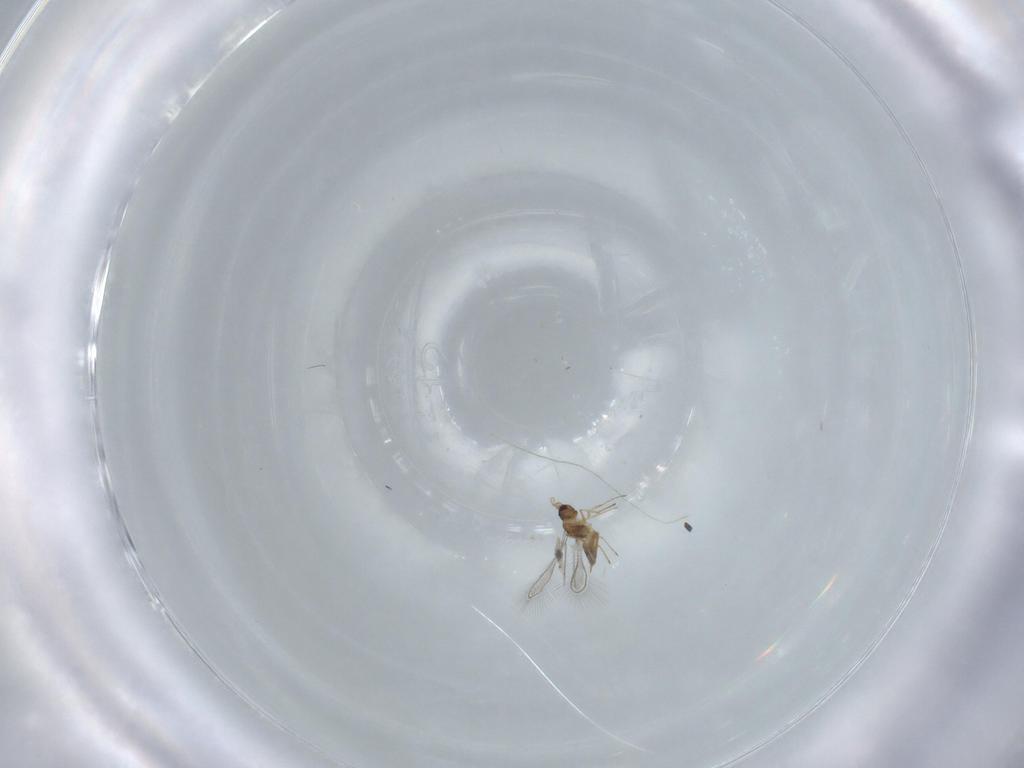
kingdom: Animalia
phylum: Arthropoda
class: Insecta
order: Hymenoptera
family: Mymaridae
